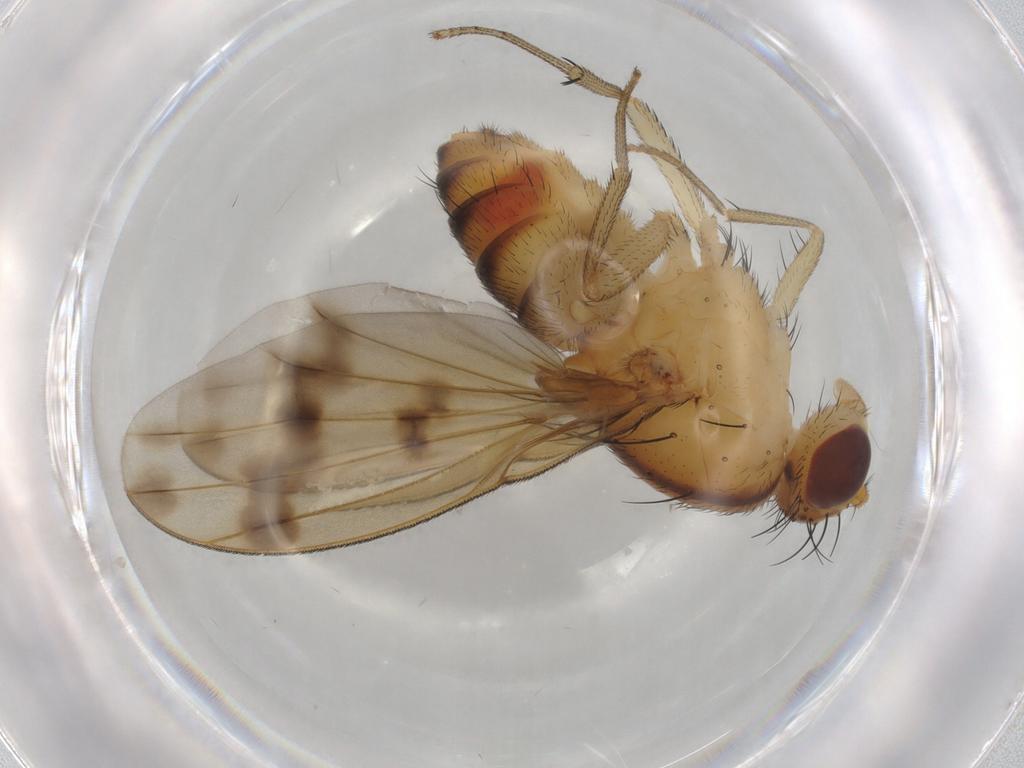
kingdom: Animalia
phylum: Arthropoda
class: Insecta
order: Diptera
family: Lauxaniidae
